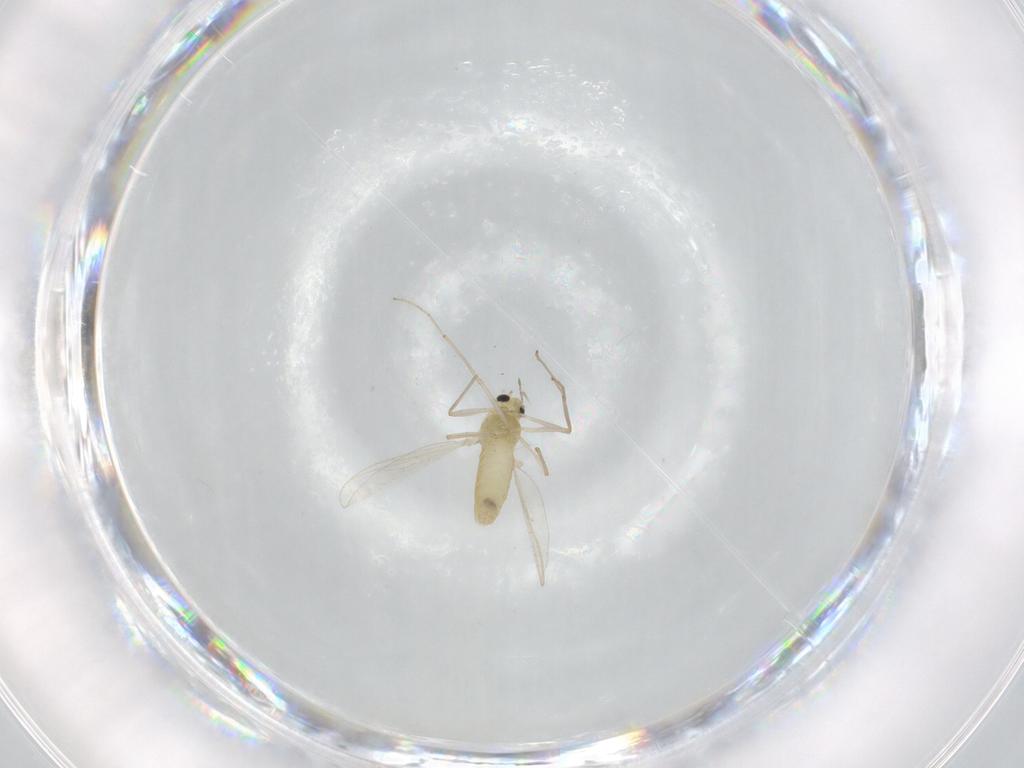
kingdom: Animalia
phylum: Arthropoda
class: Insecta
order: Diptera
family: Chironomidae
